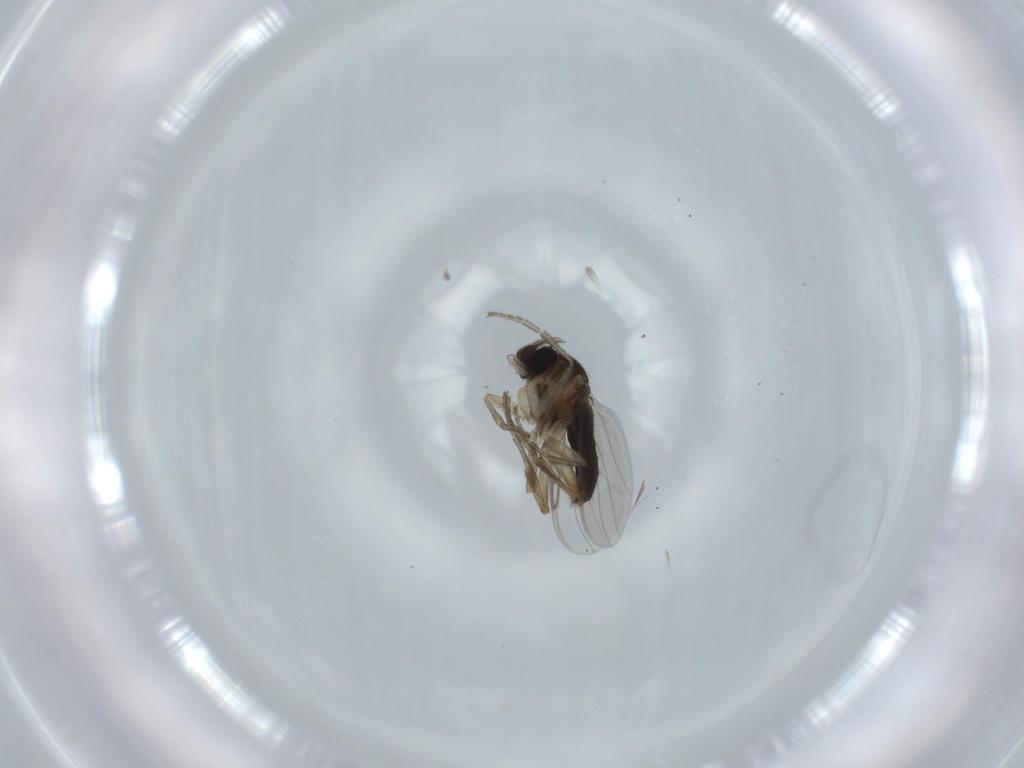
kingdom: Animalia
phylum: Arthropoda
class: Insecta
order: Diptera
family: Phoridae
